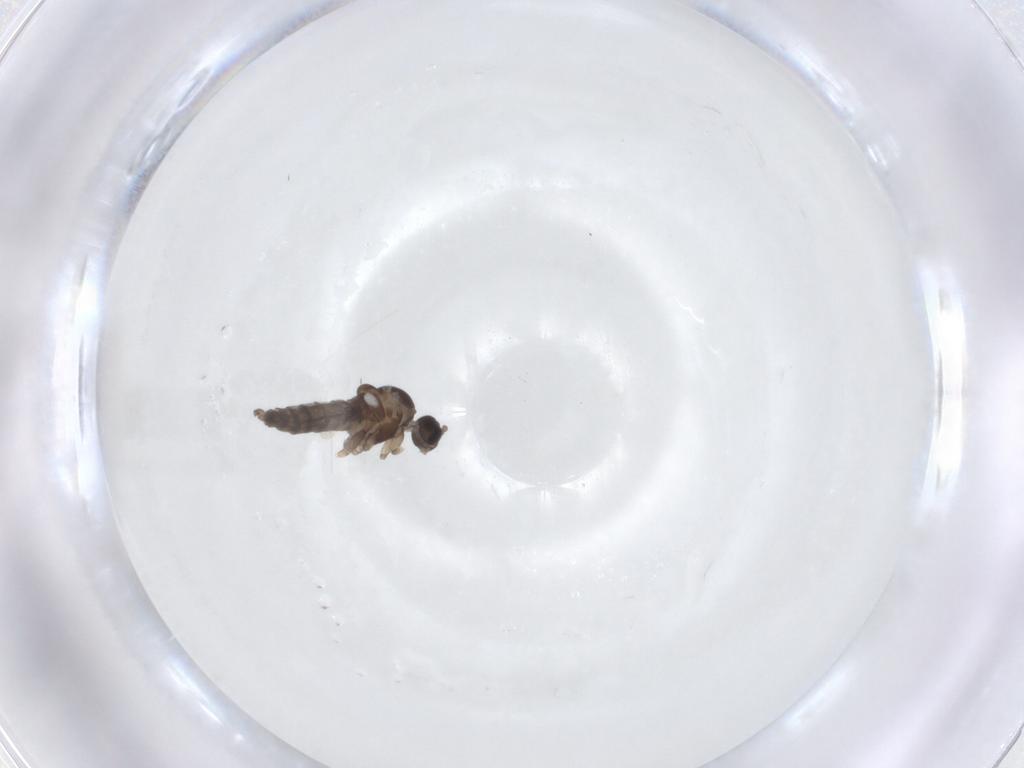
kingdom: Animalia
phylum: Arthropoda
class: Insecta
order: Diptera
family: Cecidomyiidae
